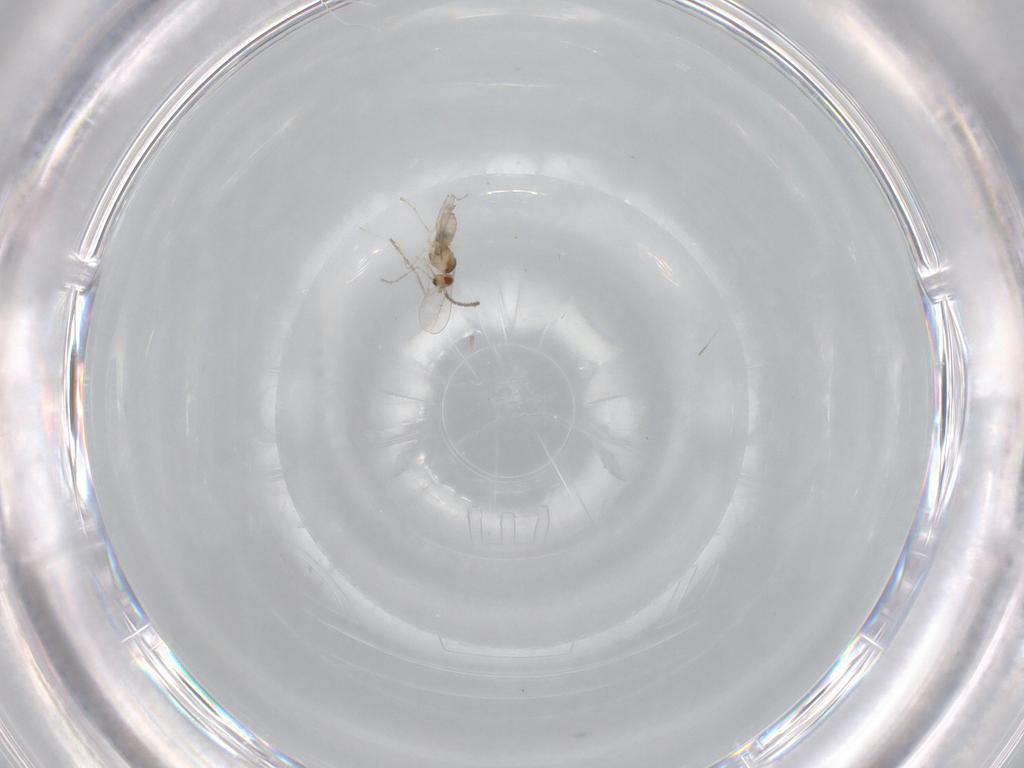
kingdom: Animalia
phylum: Arthropoda
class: Insecta
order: Diptera
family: Cecidomyiidae
